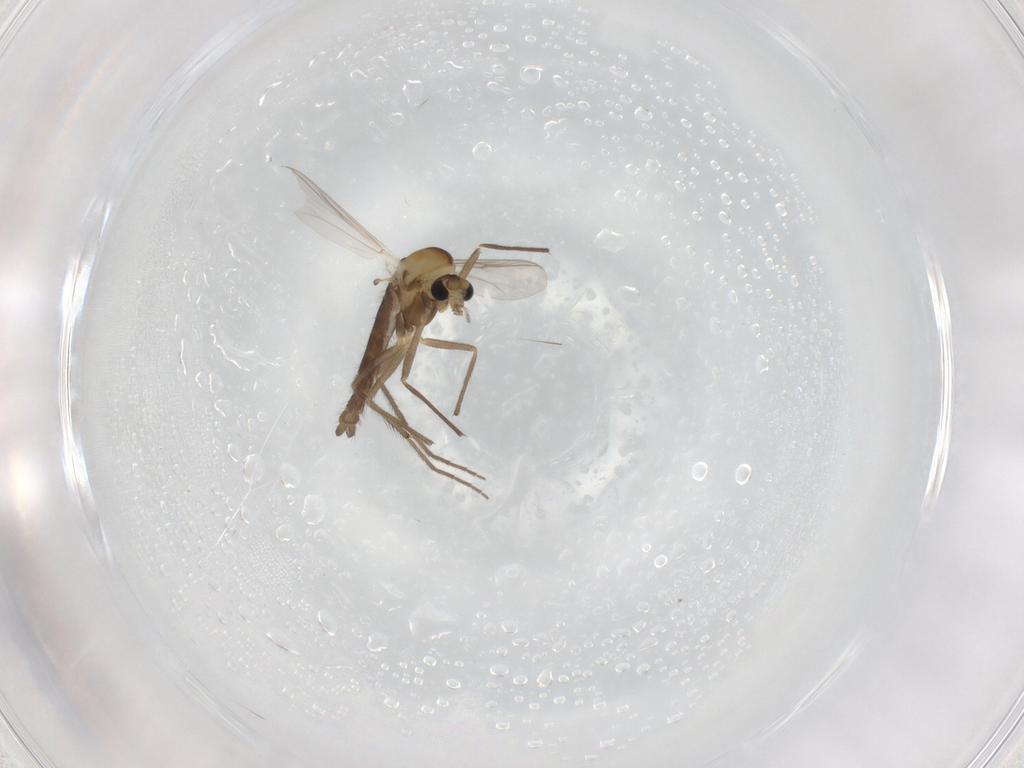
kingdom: Animalia
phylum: Arthropoda
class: Insecta
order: Diptera
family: Chironomidae
